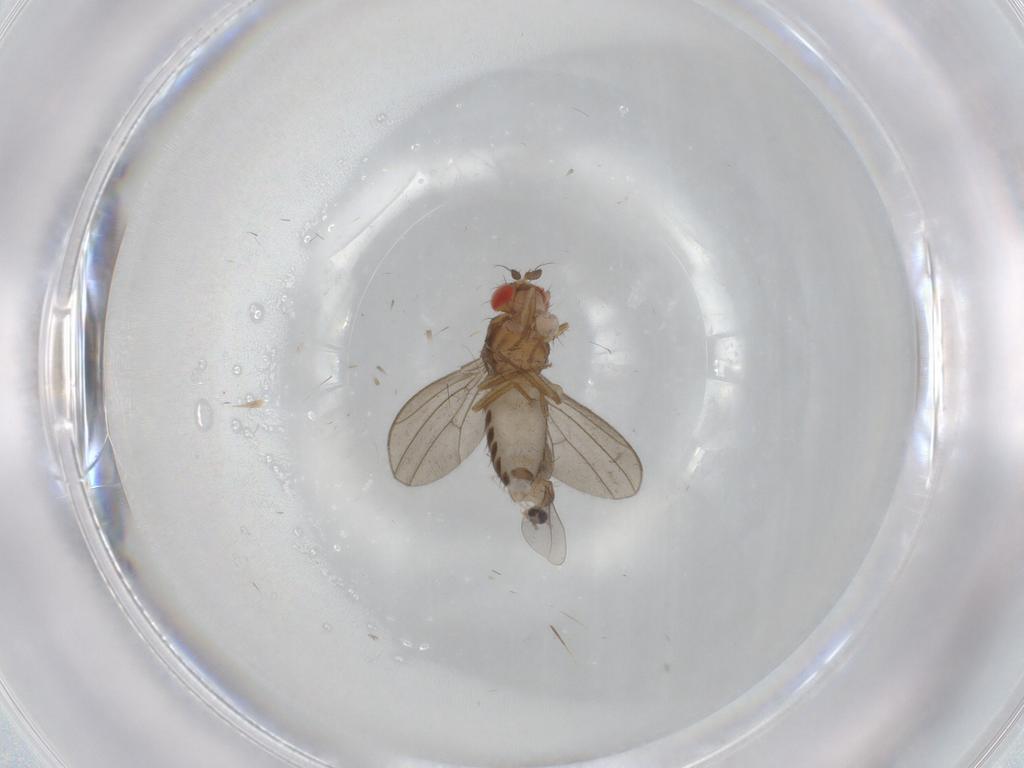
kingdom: Animalia
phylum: Arthropoda
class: Insecta
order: Diptera
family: Drosophilidae
